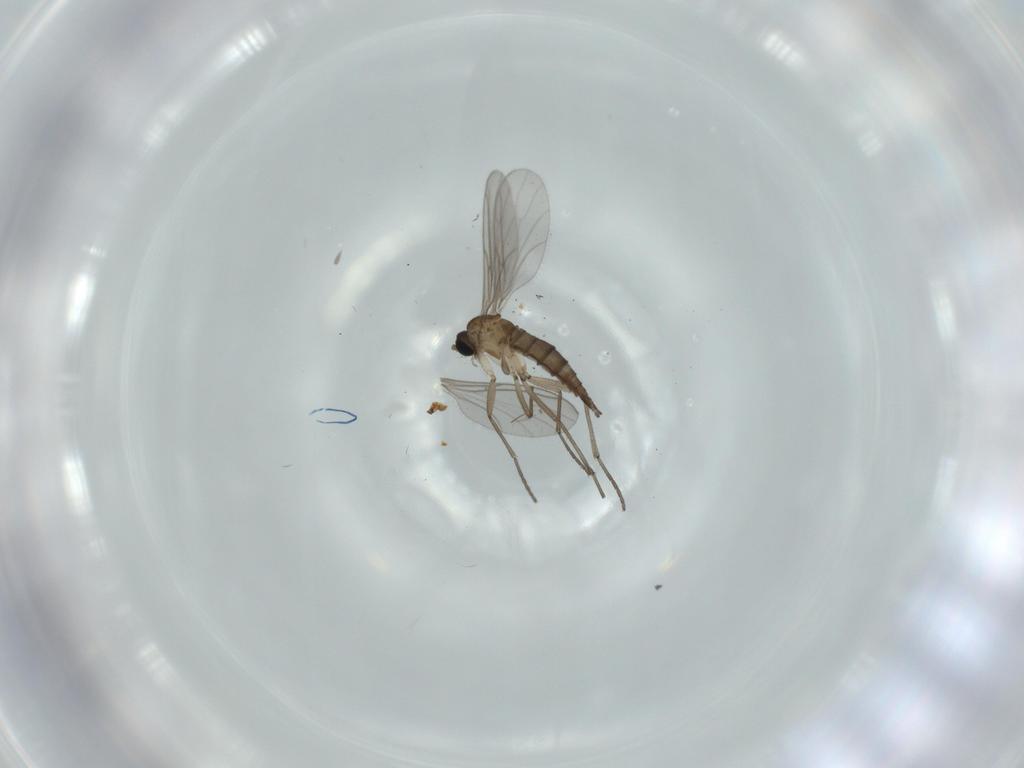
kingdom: Animalia
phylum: Arthropoda
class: Insecta
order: Diptera
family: Sciaridae
